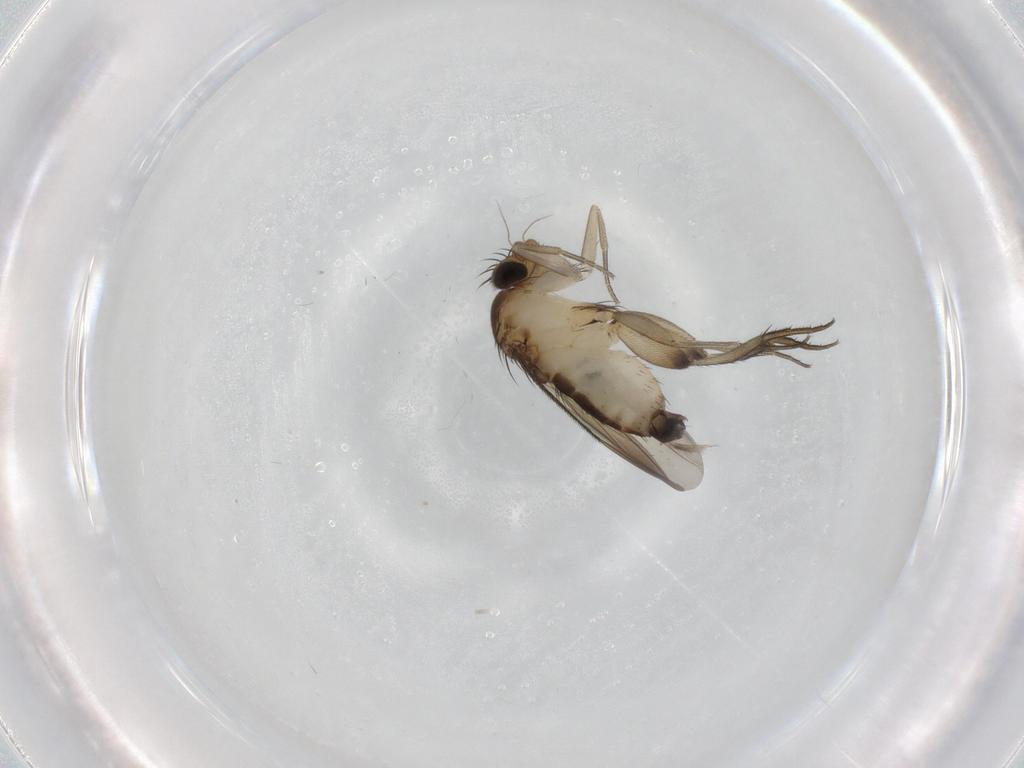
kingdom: Animalia
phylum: Arthropoda
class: Insecta
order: Diptera
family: Phoridae
